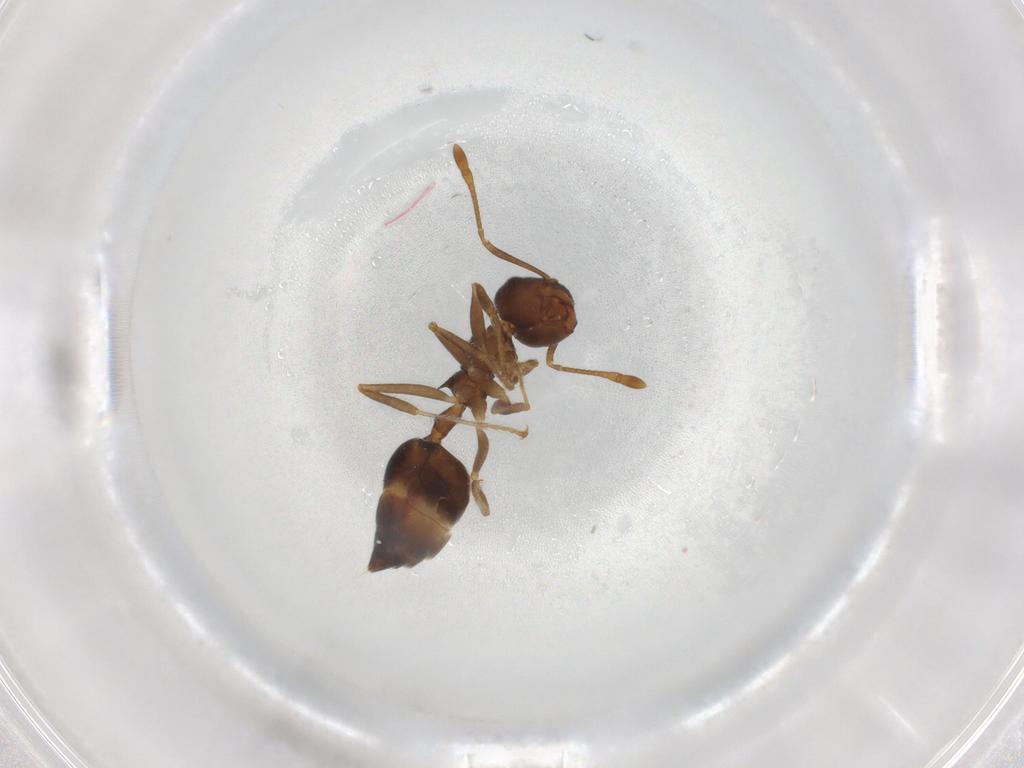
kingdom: Animalia
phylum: Arthropoda
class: Insecta
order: Hymenoptera
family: Formicidae
